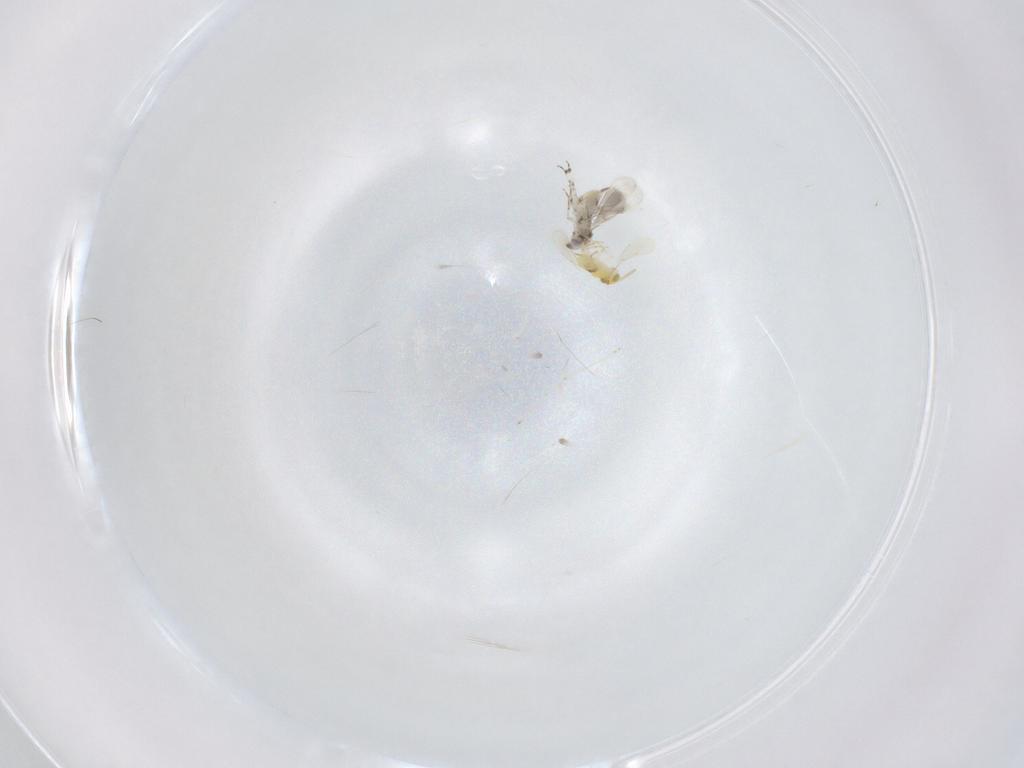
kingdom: Animalia
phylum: Arthropoda
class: Insecta
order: Hymenoptera
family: Aphelinidae
